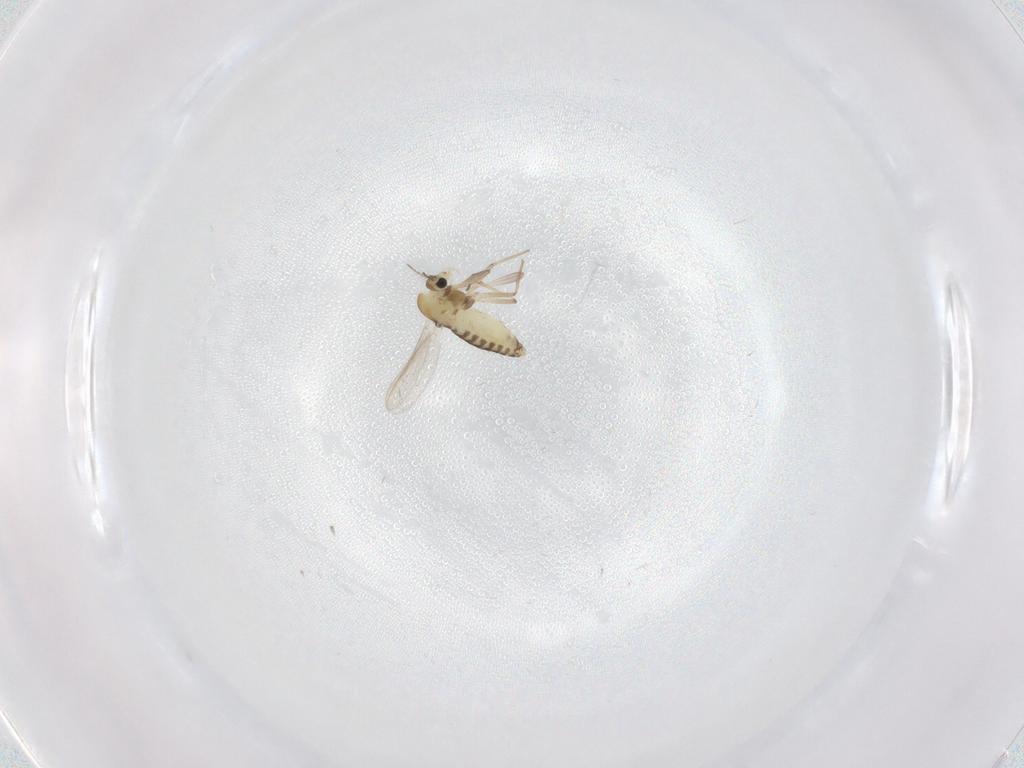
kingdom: Animalia
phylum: Arthropoda
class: Insecta
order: Diptera
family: Chironomidae
